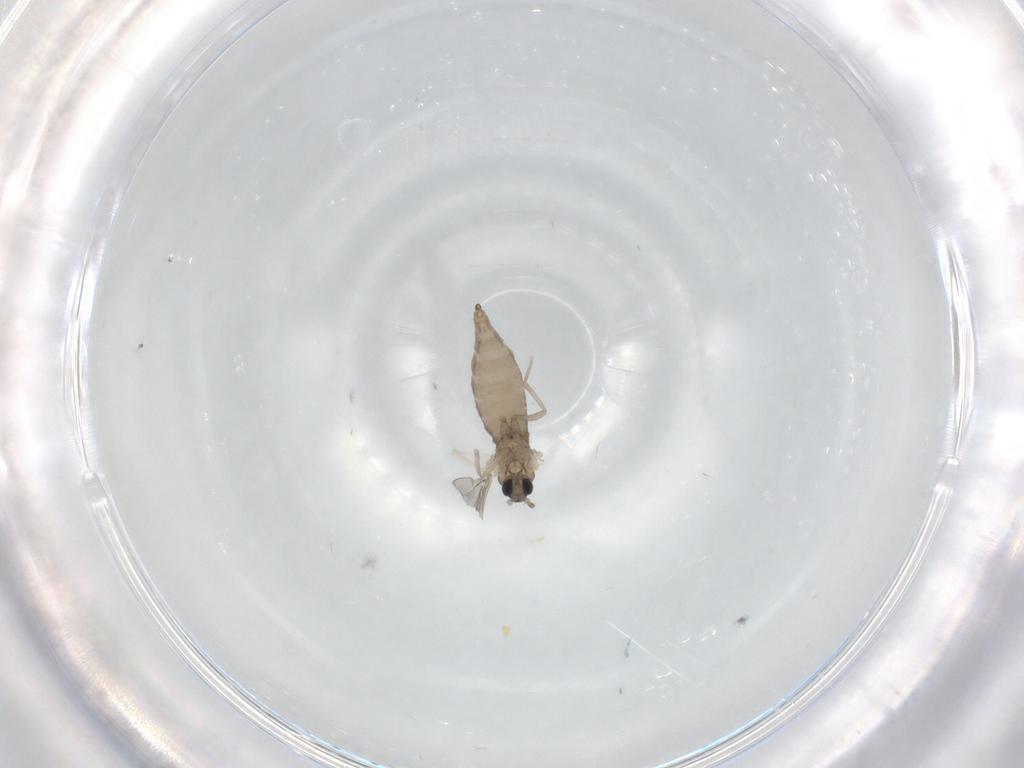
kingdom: Animalia
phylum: Arthropoda
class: Insecta
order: Diptera
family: Cecidomyiidae
